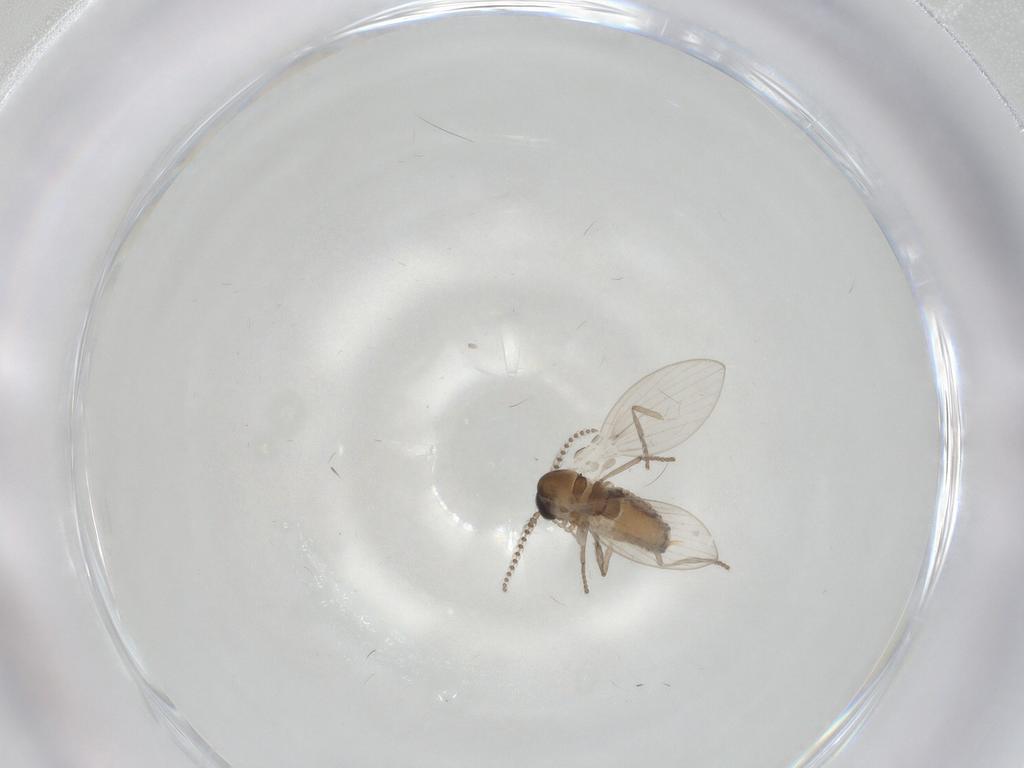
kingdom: Animalia
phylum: Arthropoda
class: Insecta
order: Diptera
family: Psychodidae
